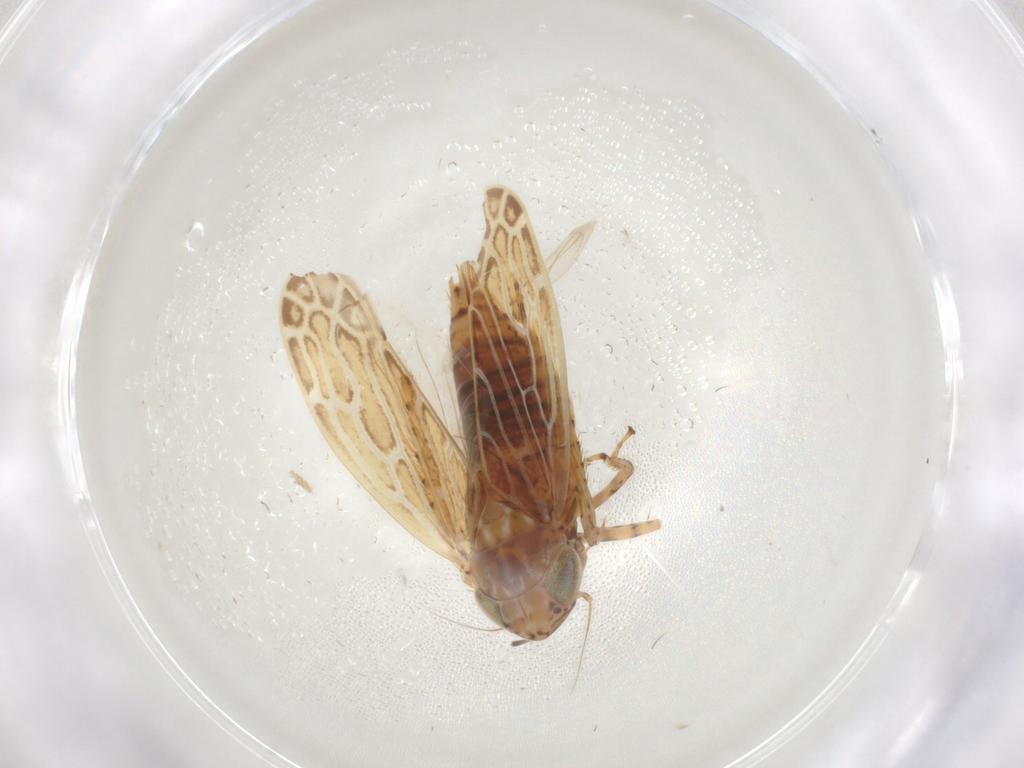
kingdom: Animalia
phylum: Arthropoda
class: Insecta
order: Hemiptera
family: Cicadellidae
